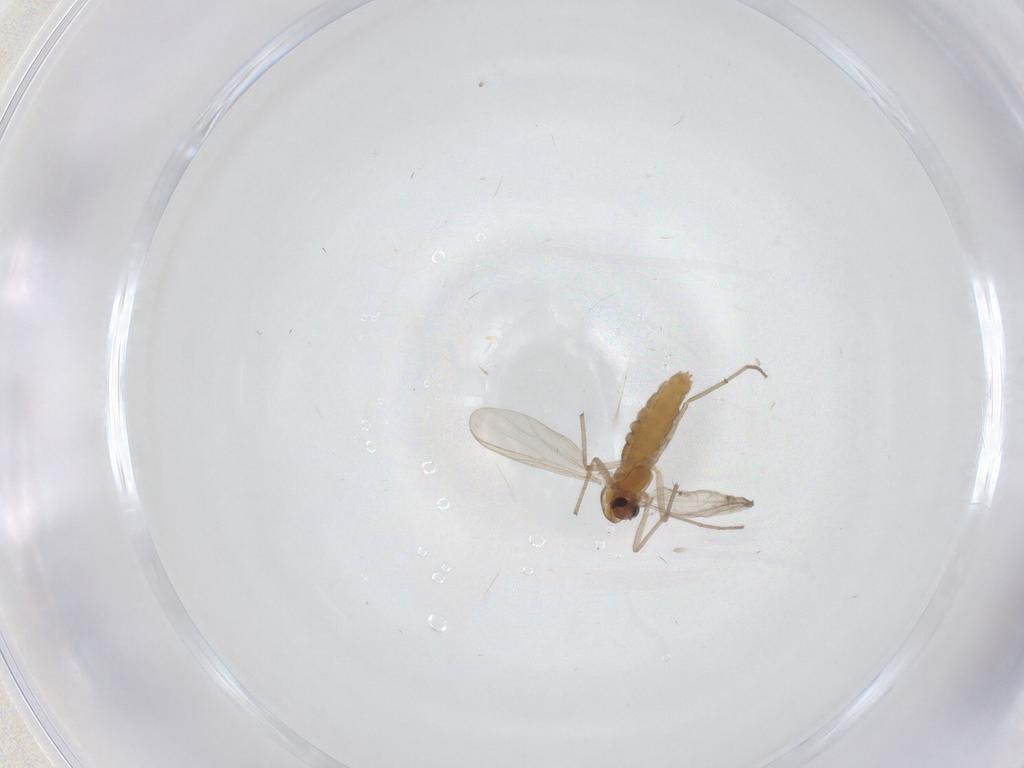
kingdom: Animalia
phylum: Arthropoda
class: Insecta
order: Diptera
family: Chironomidae
